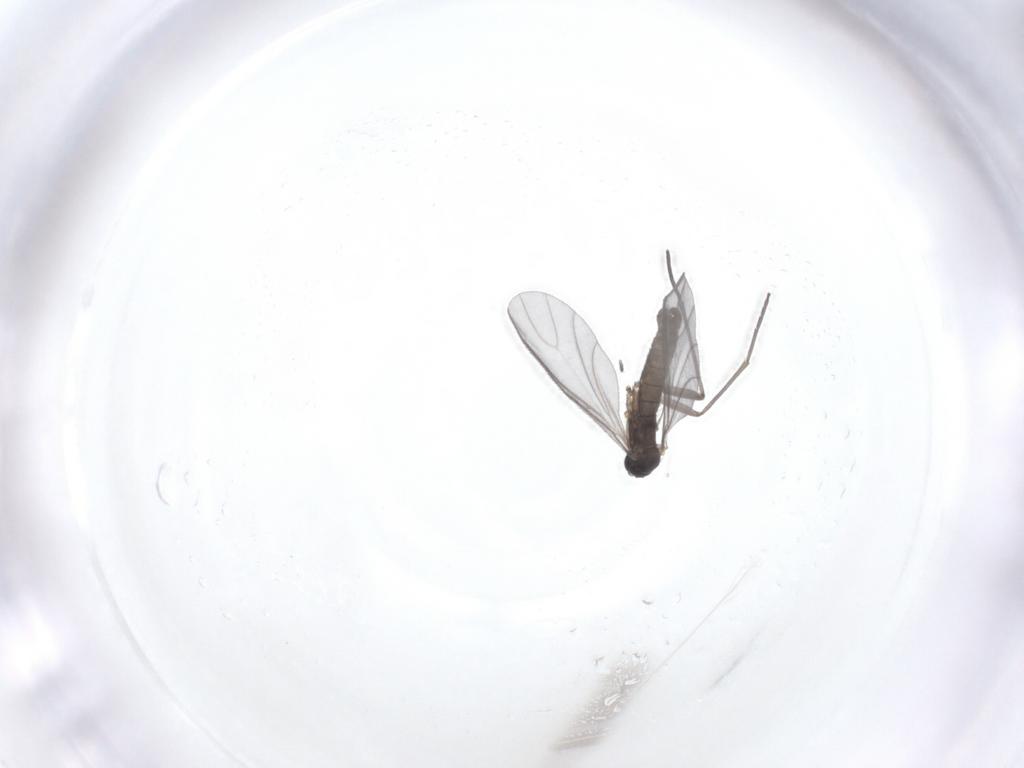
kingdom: Animalia
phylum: Arthropoda
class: Insecta
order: Diptera
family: Sciaridae
